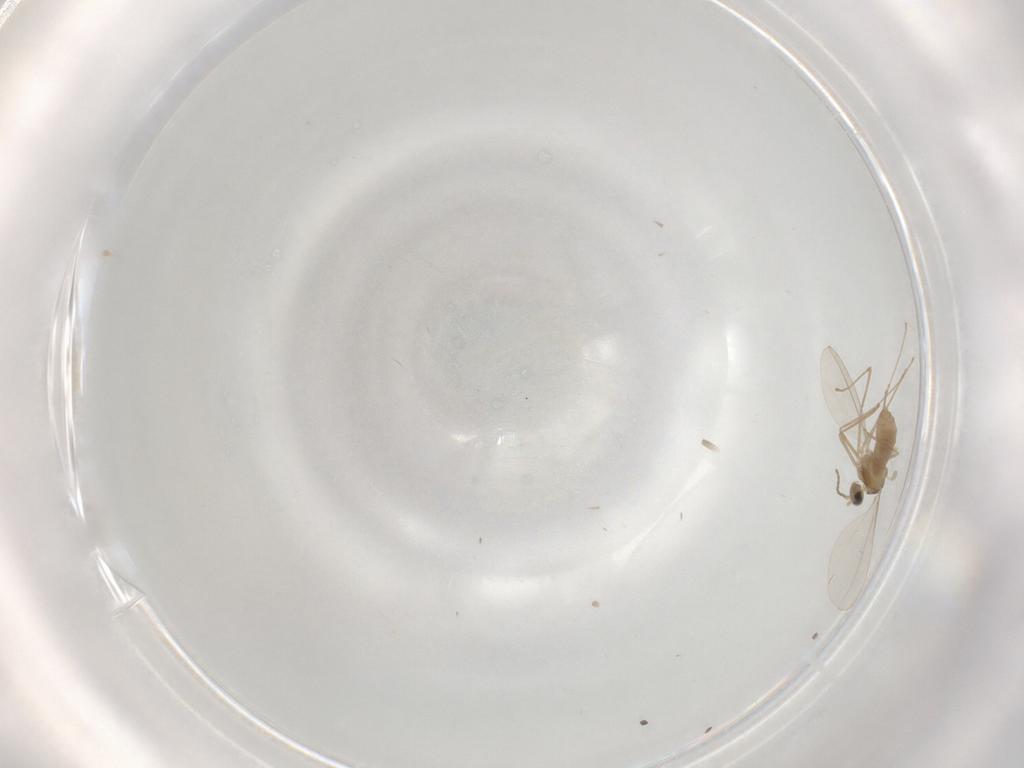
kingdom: Animalia
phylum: Arthropoda
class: Insecta
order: Diptera
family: Cecidomyiidae
